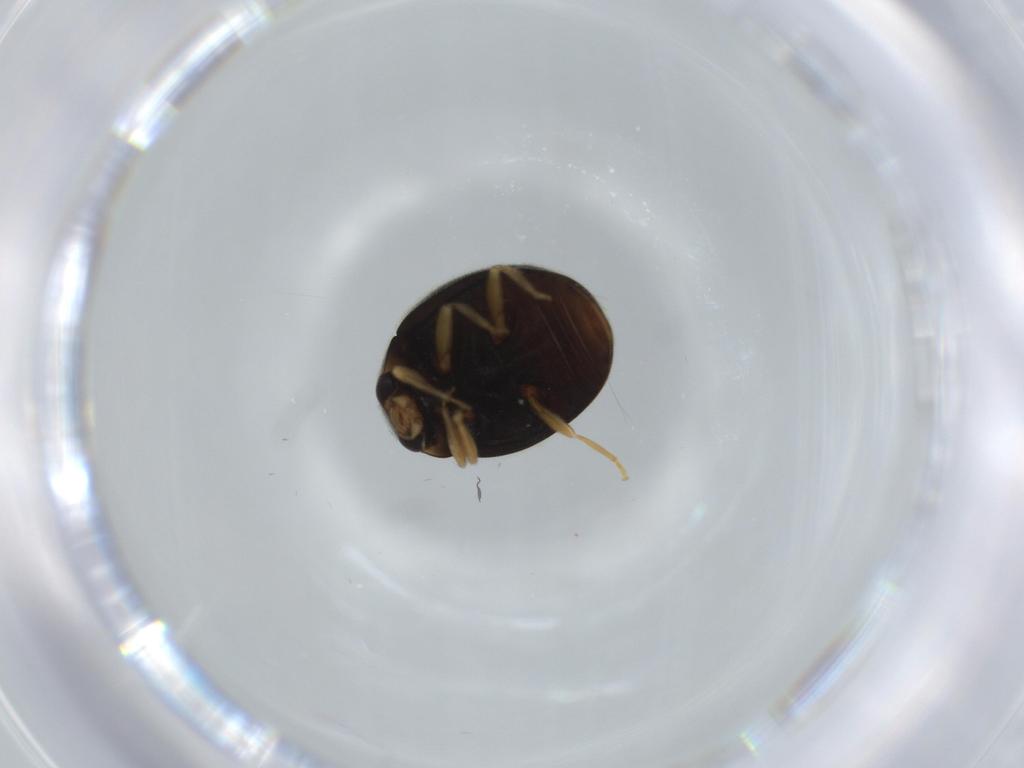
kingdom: Animalia
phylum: Arthropoda
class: Insecta
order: Coleoptera
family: Coccinellidae
